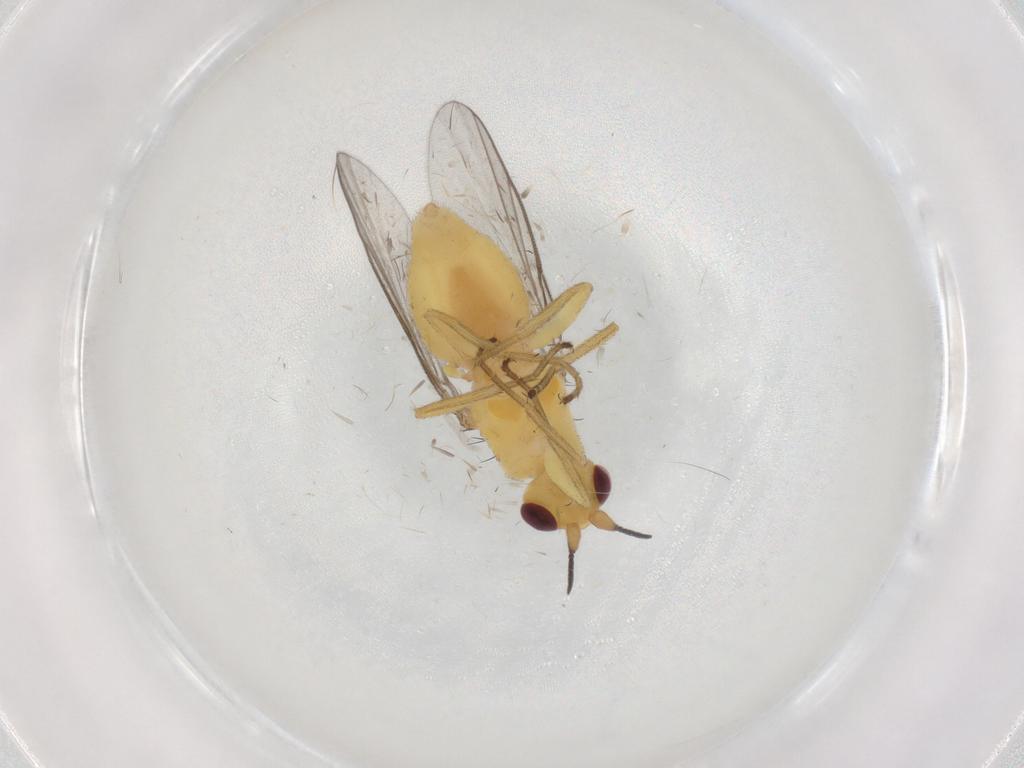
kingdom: Animalia
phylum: Arthropoda
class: Insecta
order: Diptera
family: Chloropidae
